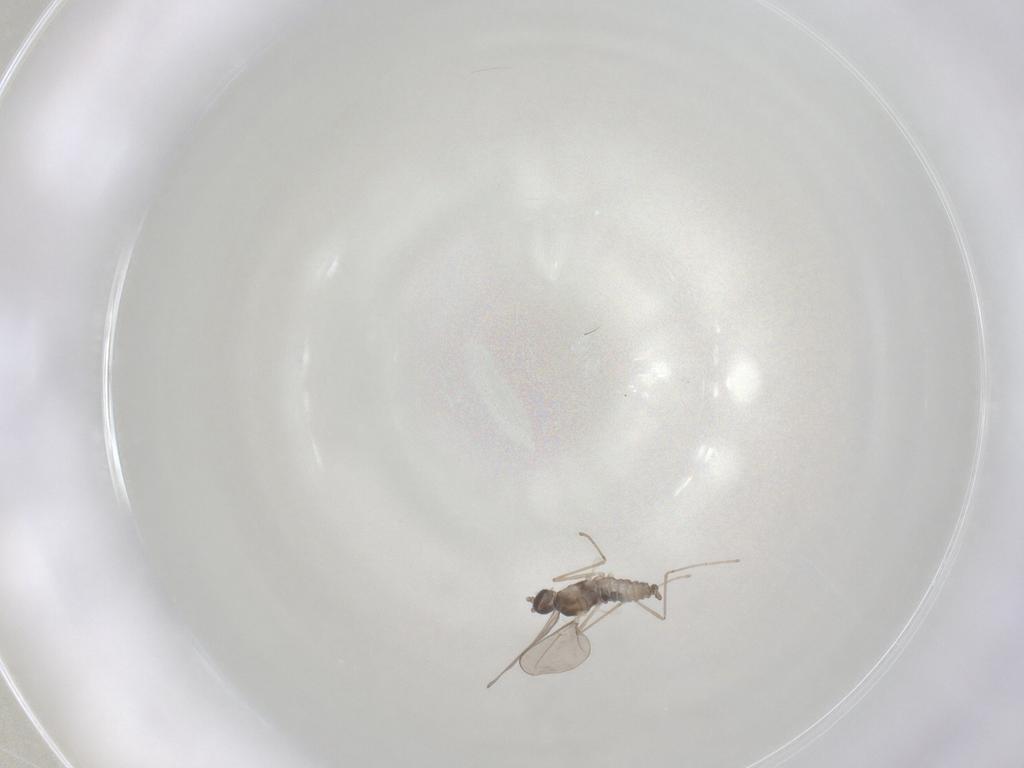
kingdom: Animalia
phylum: Arthropoda
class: Insecta
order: Diptera
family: Cecidomyiidae
